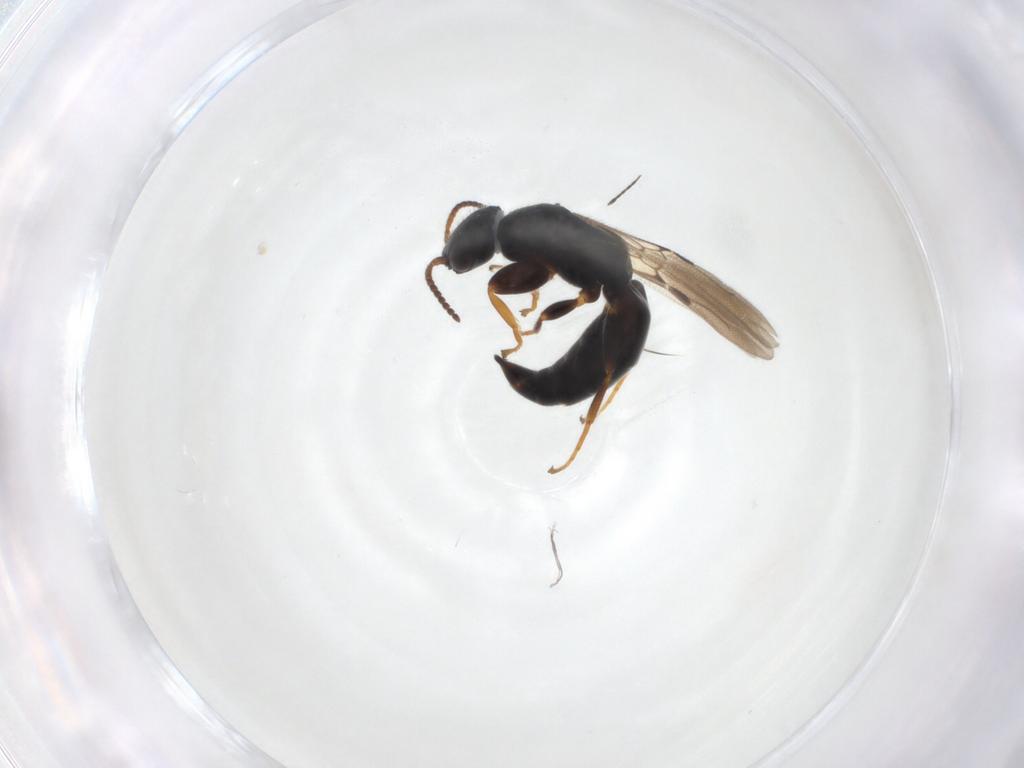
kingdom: Animalia
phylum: Arthropoda
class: Insecta
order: Hymenoptera
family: Bethylidae
